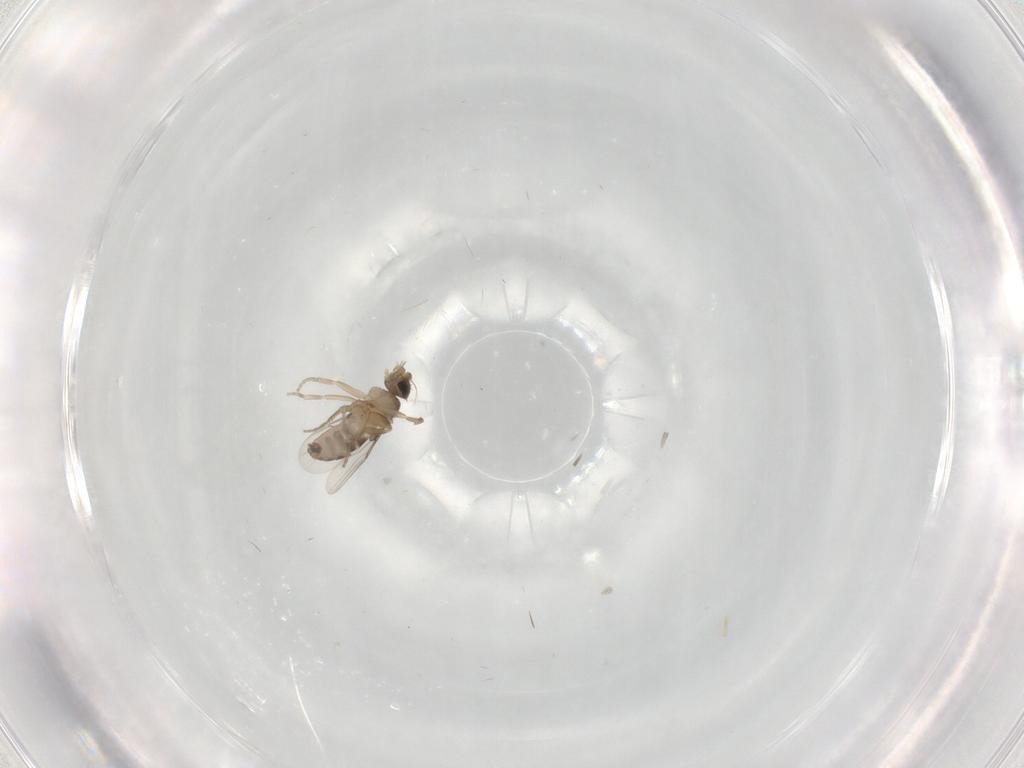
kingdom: Animalia
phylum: Arthropoda
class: Insecta
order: Diptera
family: Phoridae
